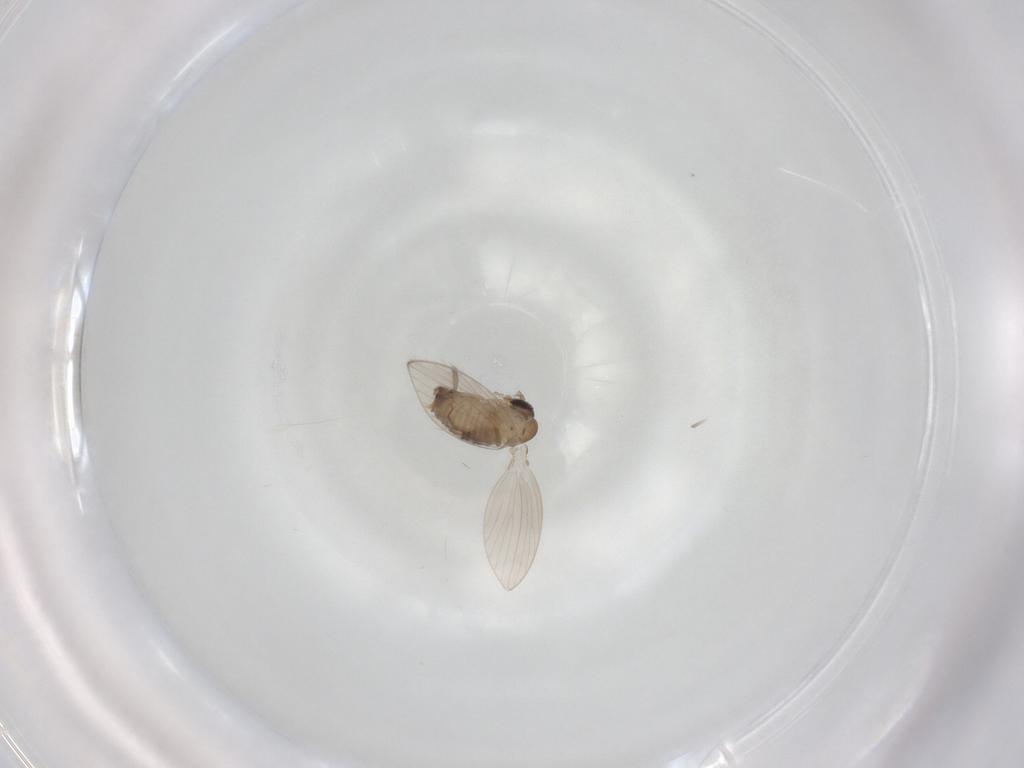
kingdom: Animalia
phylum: Arthropoda
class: Insecta
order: Diptera
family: Psychodidae
